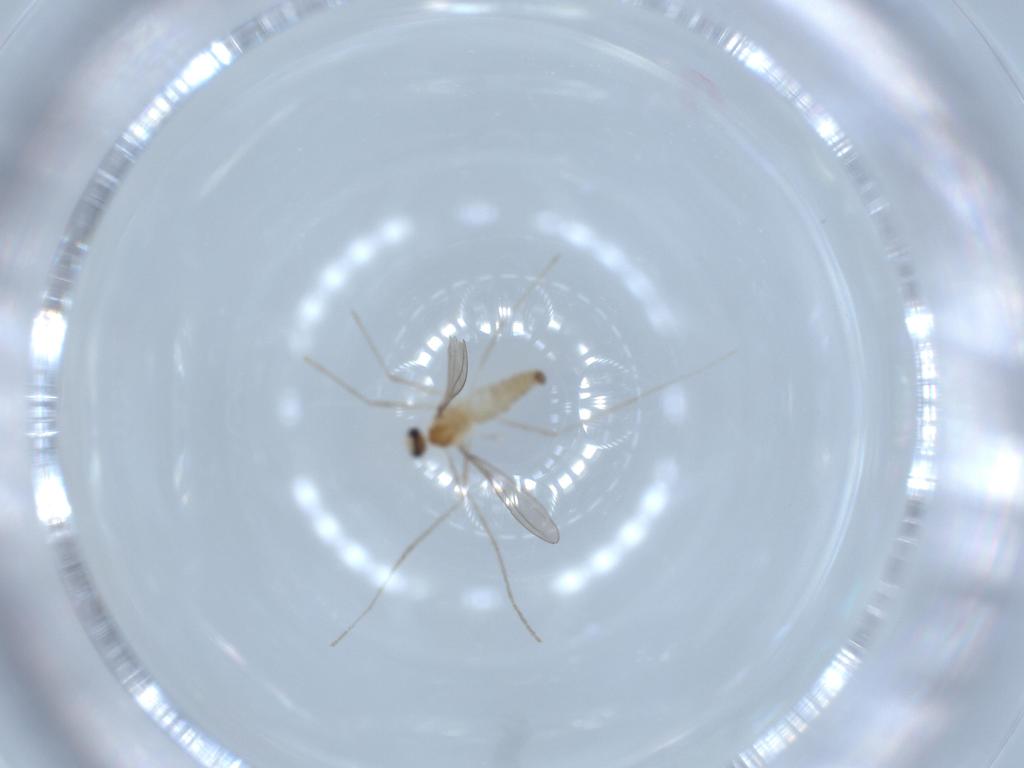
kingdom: Animalia
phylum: Arthropoda
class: Insecta
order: Diptera
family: Cecidomyiidae
